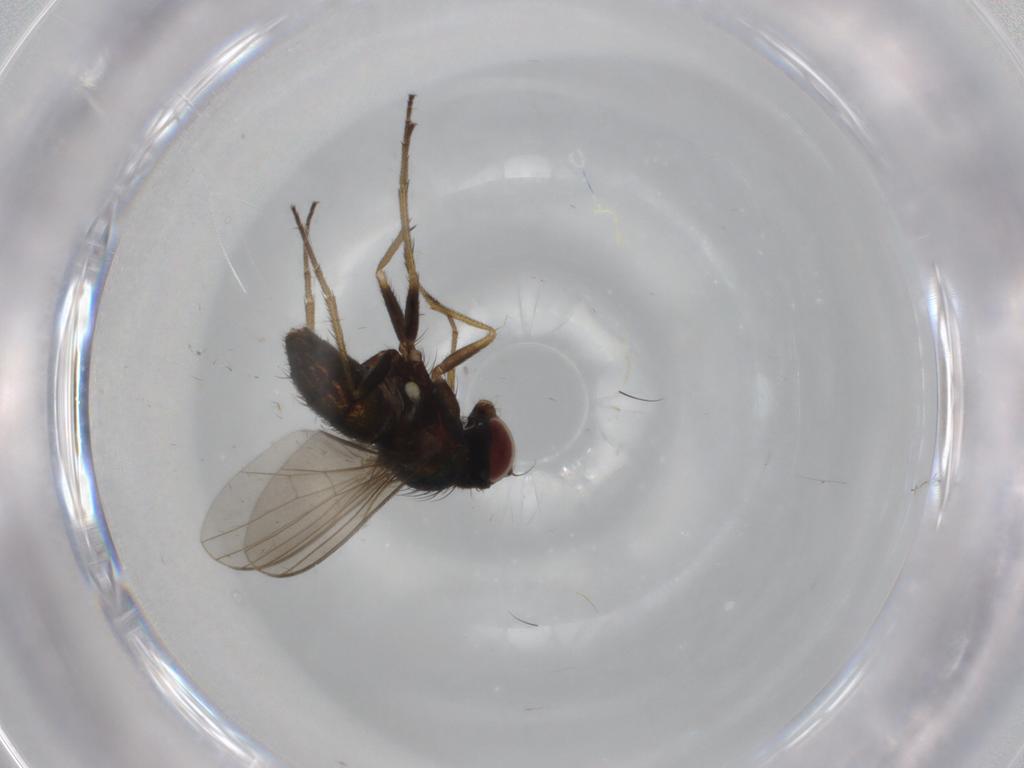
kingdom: Animalia
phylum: Arthropoda
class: Insecta
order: Diptera
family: Dolichopodidae
